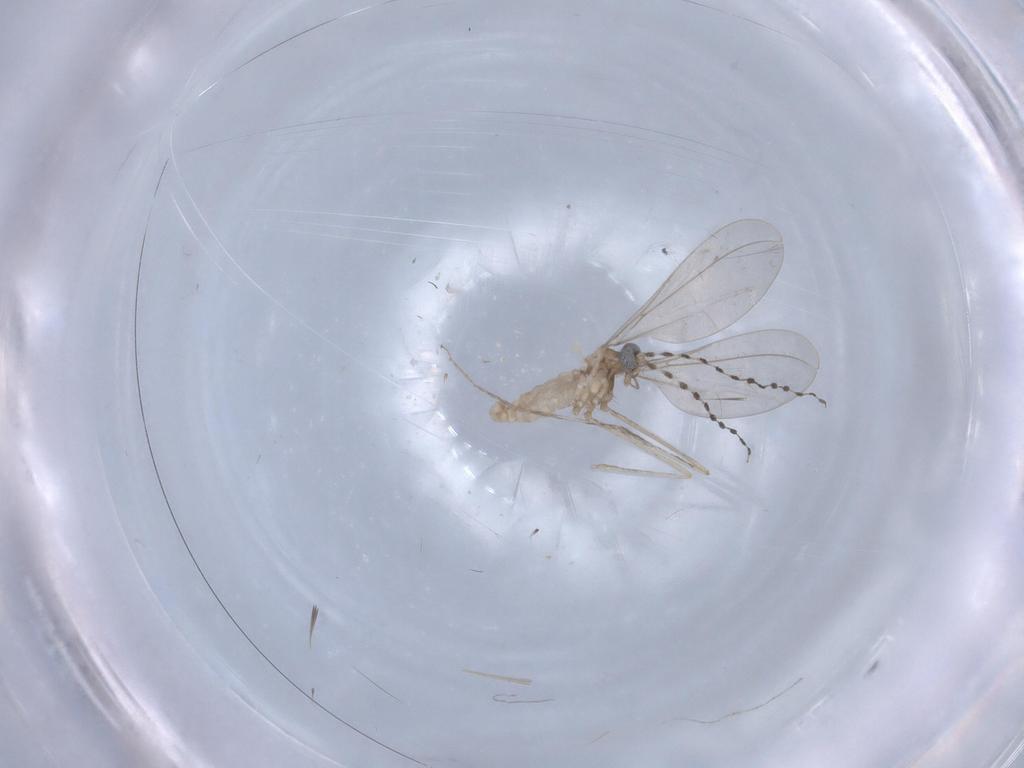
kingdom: Animalia
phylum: Arthropoda
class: Insecta
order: Diptera
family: Cecidomyiidae
